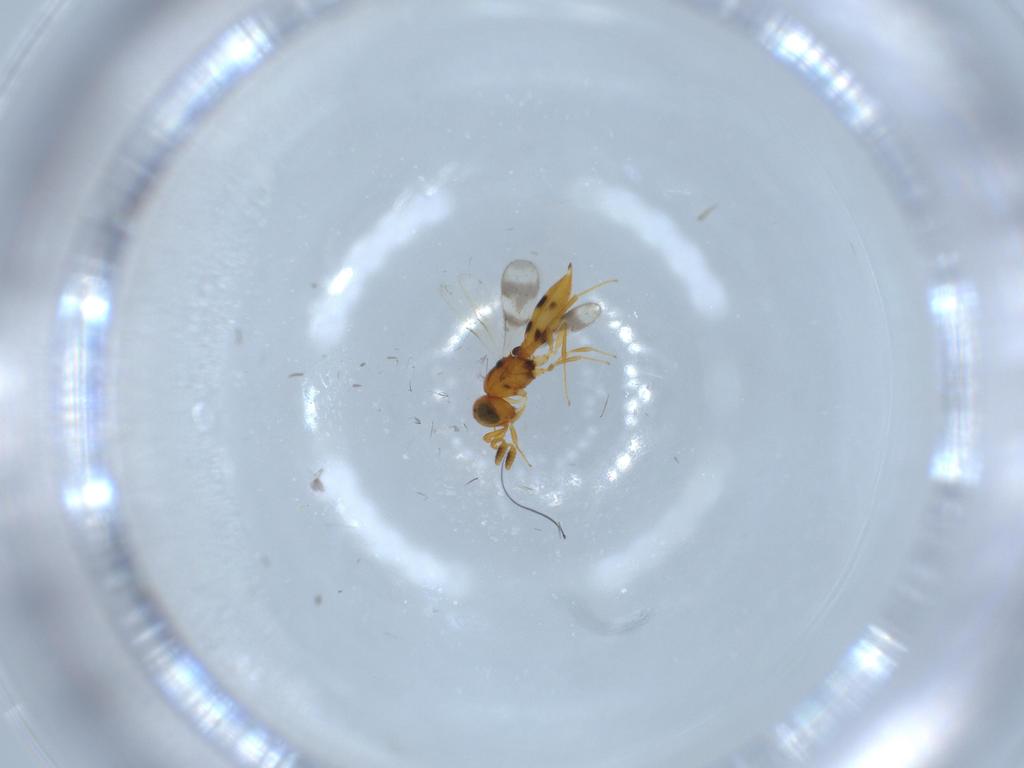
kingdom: Animalia
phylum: Arthropoda
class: Insecta
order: Hymenoptera
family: Scelionidae
